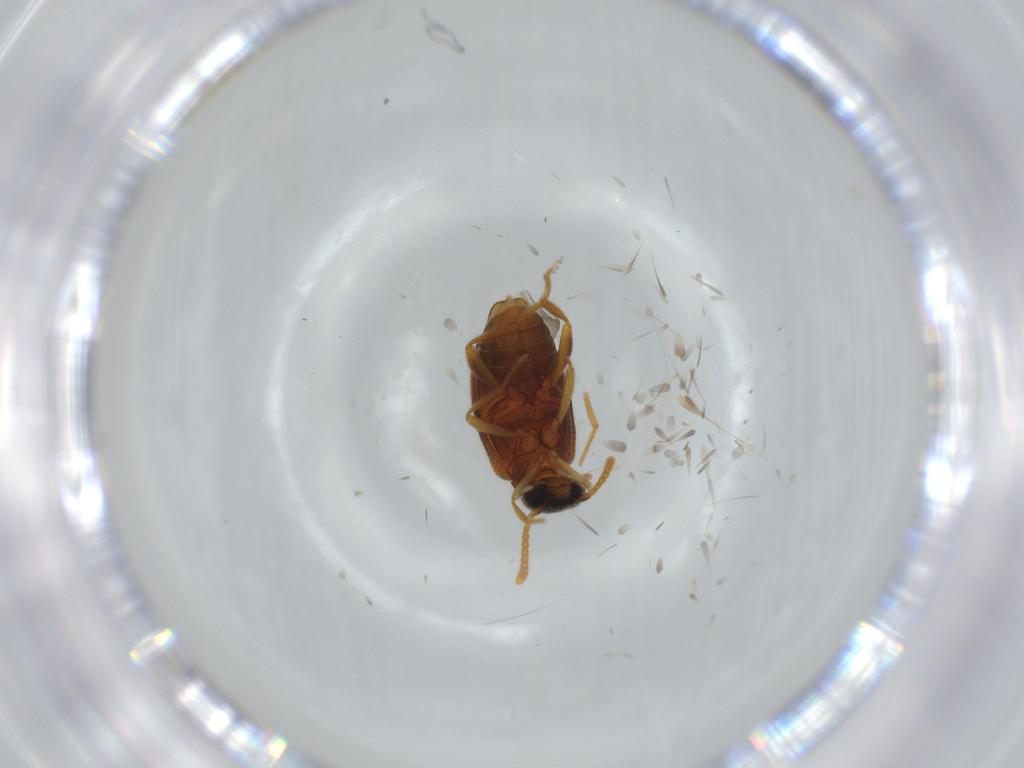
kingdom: Animalia
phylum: Arthropoda
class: Insecta
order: Coleoptera
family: Aderidae
